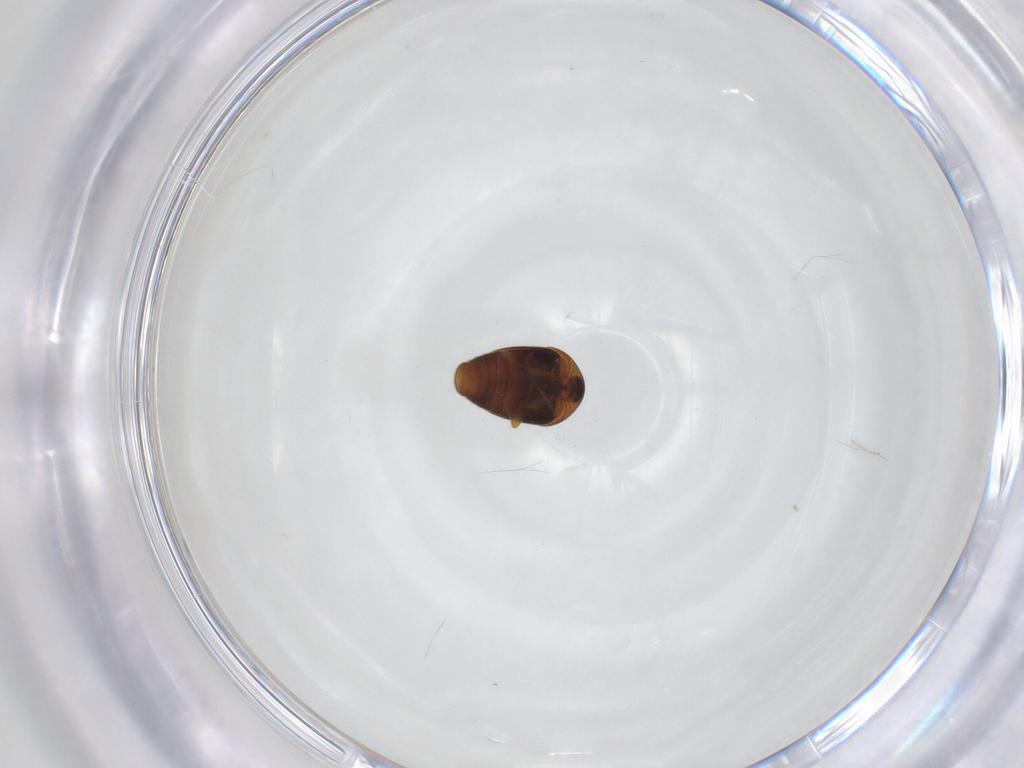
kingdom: Animalia
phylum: Arthropoda
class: Insecta
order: Coleoptera
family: Corylophidae
